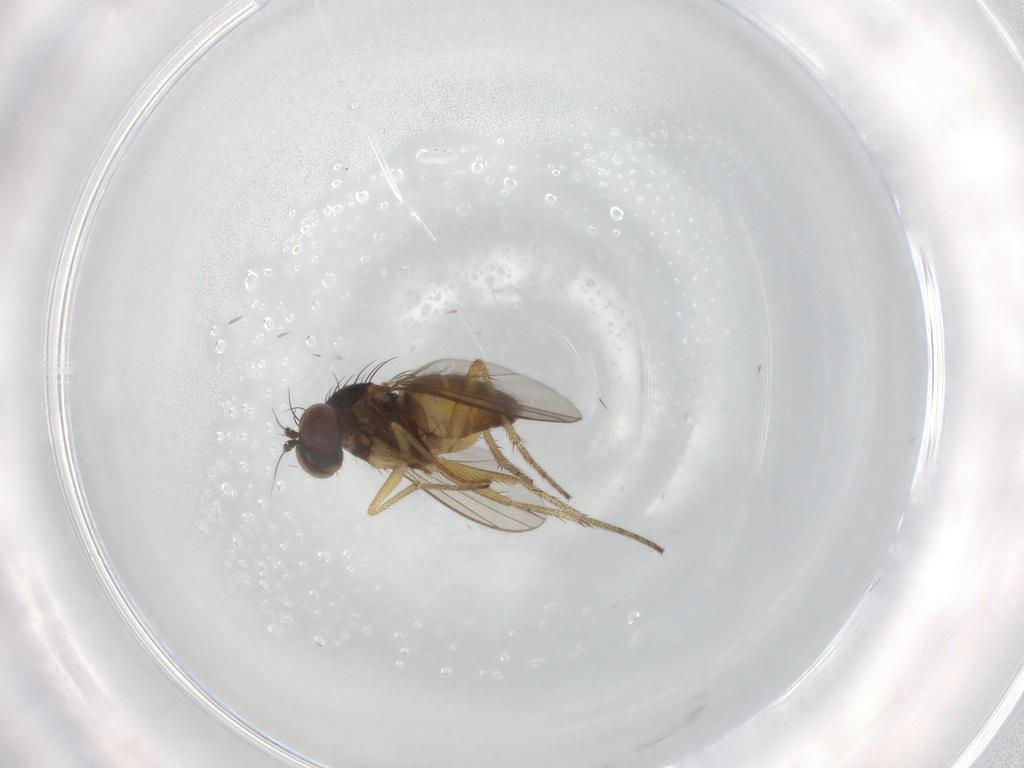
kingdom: Animalia
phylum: Arthropoda
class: Insecta
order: Diptera
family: Dolichopodidae
